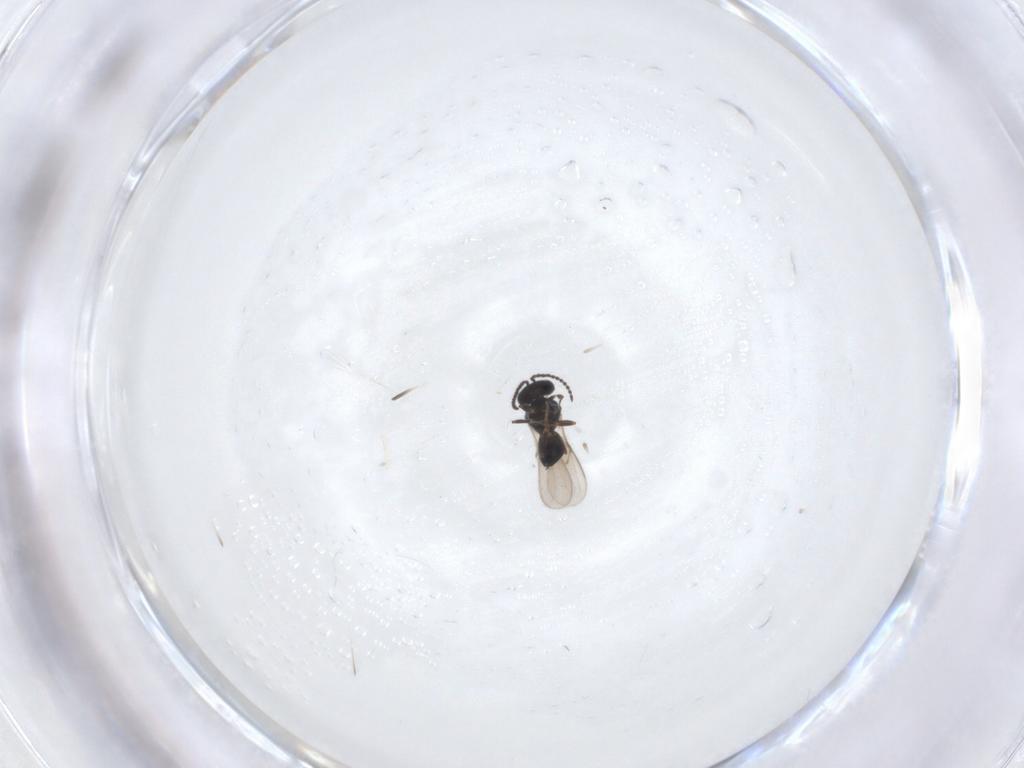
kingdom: Animalia
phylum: Arthropoda
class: Insecta
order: Hymenoptera
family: Scelionidae
